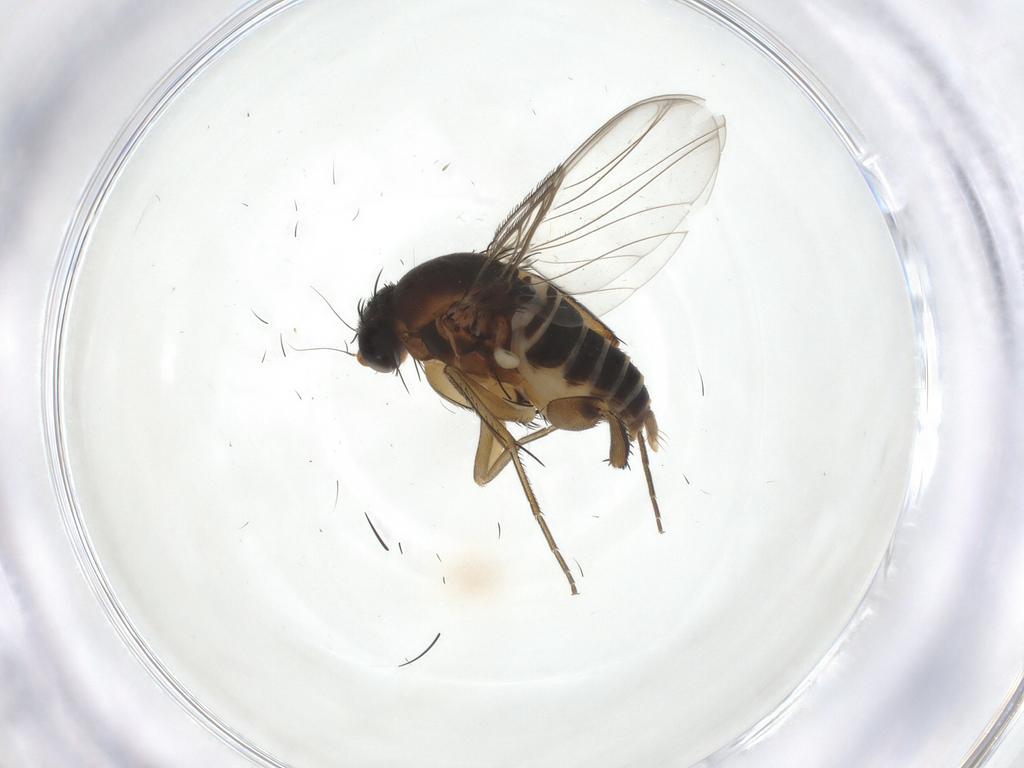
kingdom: Animalia
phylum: Arthropoda
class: Insecta
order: Diptera
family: Phoridae
